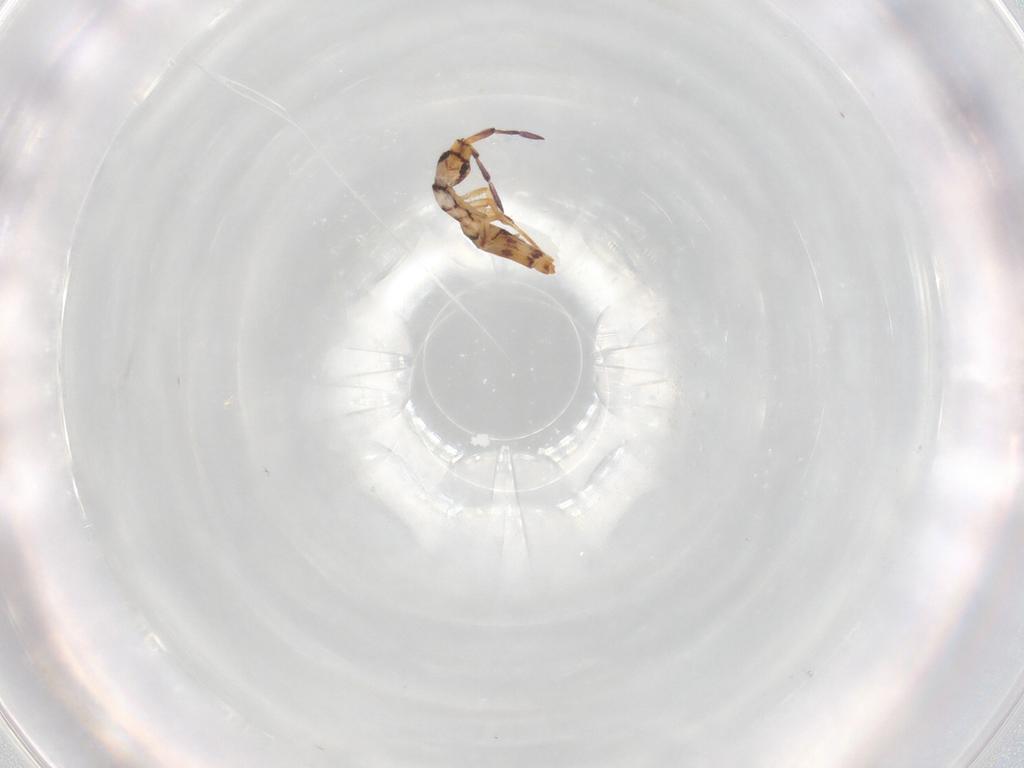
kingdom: Animalia
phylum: Arthropoda
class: Collembola
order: Entomobryomorpha
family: Entomobryidae
